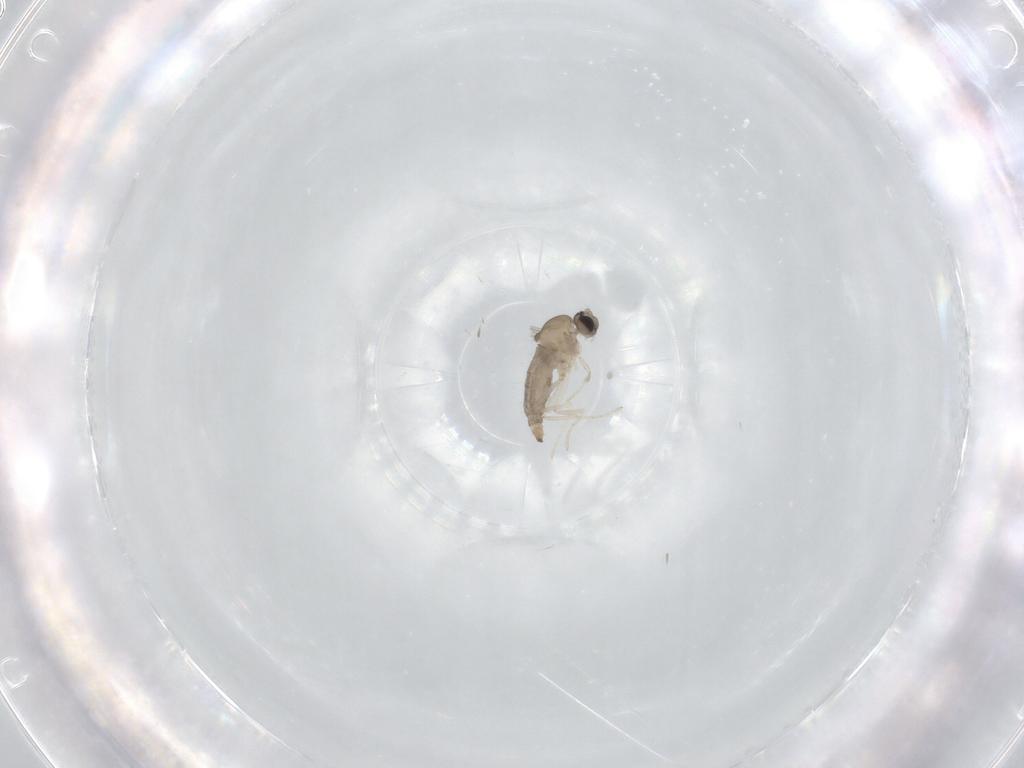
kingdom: Animalia
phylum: Arthropoda
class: Insecta
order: Diptera
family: Cecidomyiidae
